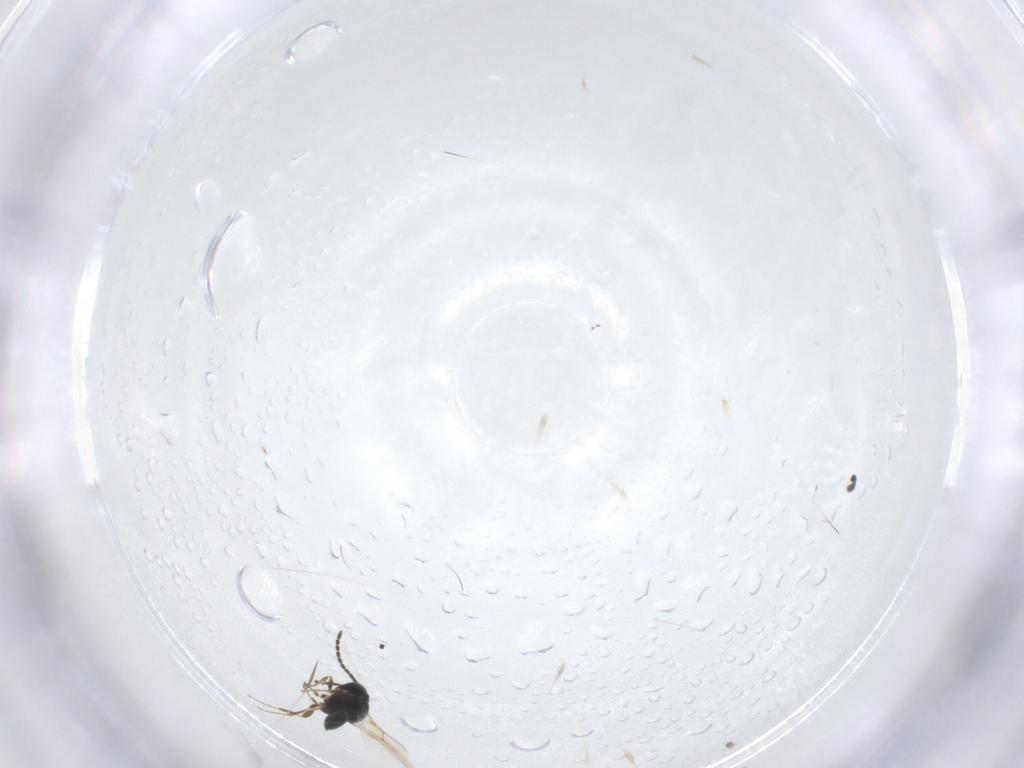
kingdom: Animalia
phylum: Arthropoda
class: Insecta
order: Hymenoptera
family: Scelionidae
